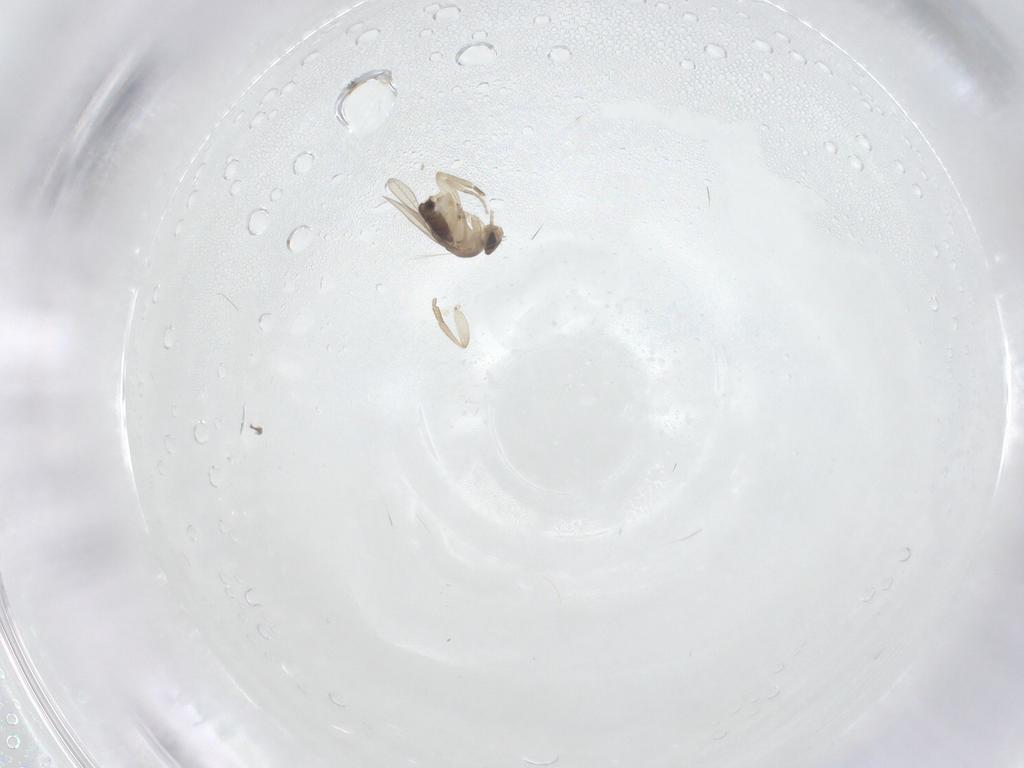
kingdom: Animalia
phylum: Arthropoda
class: Insecta
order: Diptera
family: Phoridae
